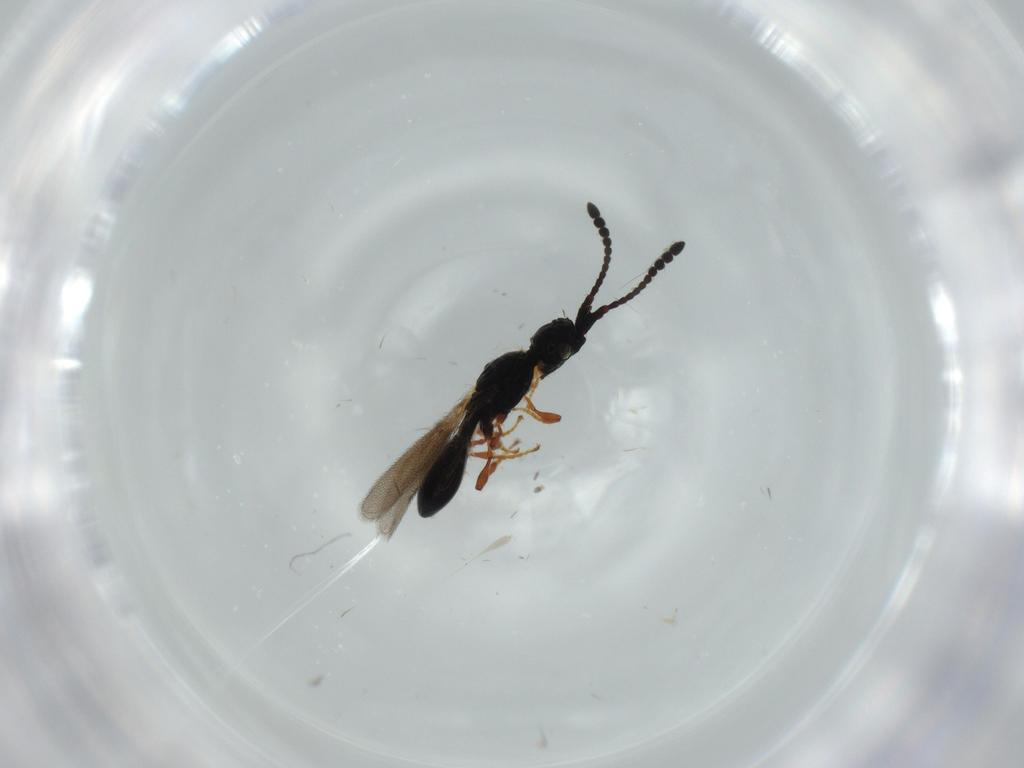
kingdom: Animalia
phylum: Arthropoda
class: Insecta
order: Hymenoptera
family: Diapriidae
